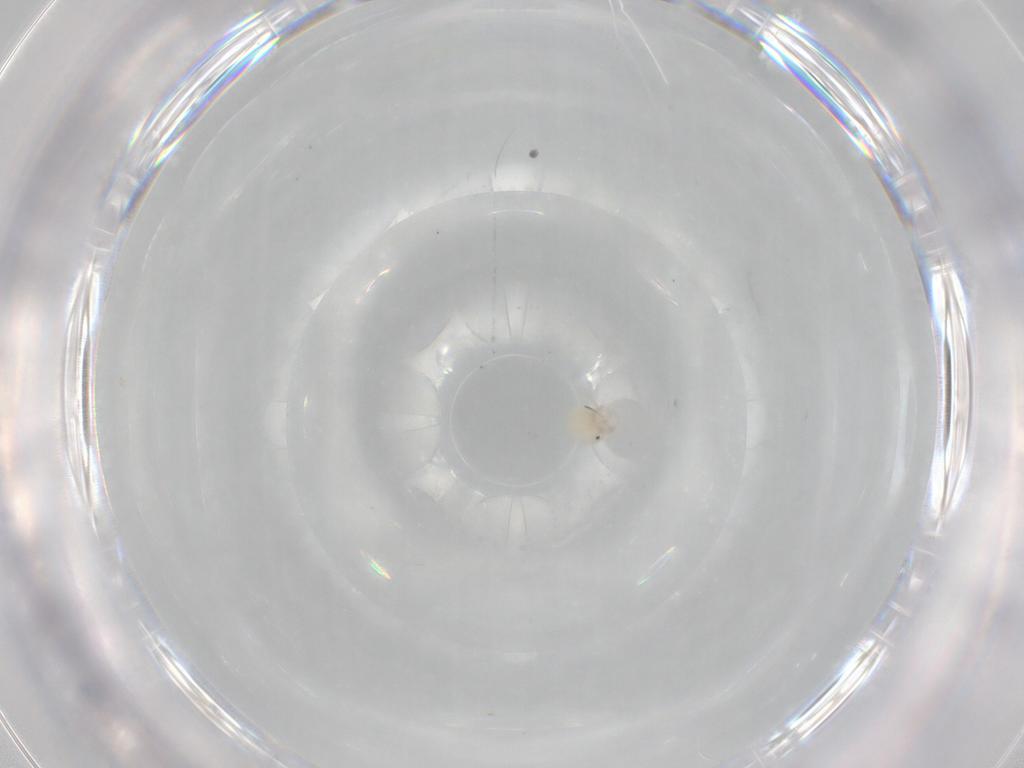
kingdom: Animalia
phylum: Arthropoda
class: Arachnida
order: Trombidiformes
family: Lebertiidae
